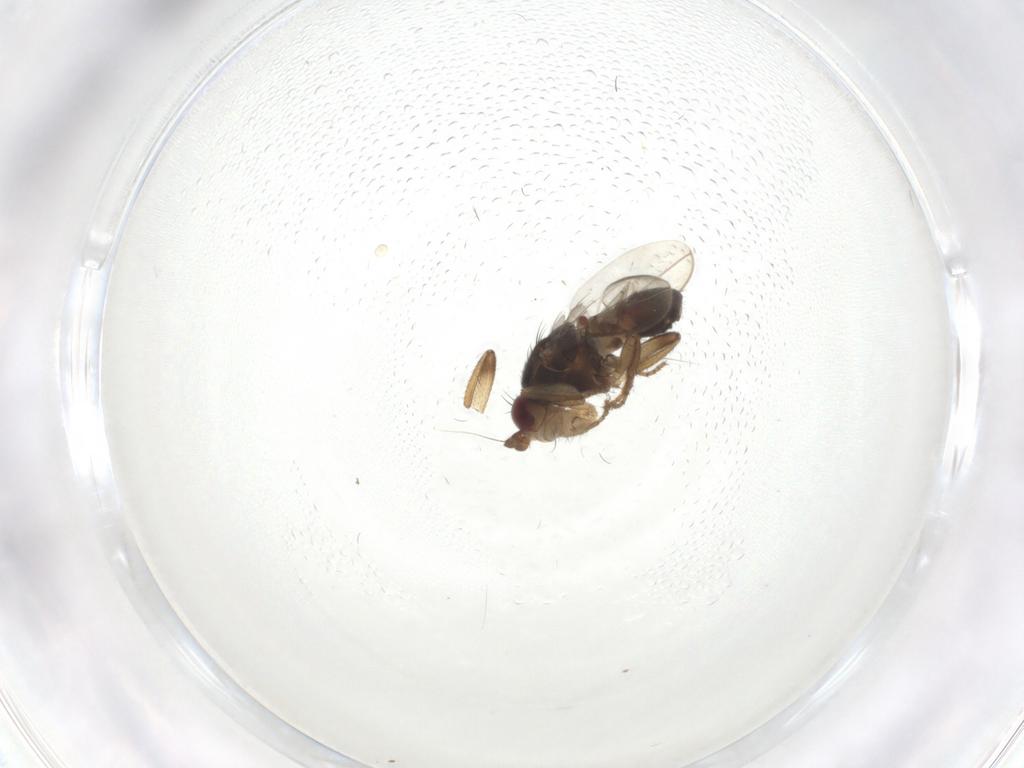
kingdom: Animalia
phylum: Arthropoda
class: Insecta
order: Diptera
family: Sphaeroceridae
